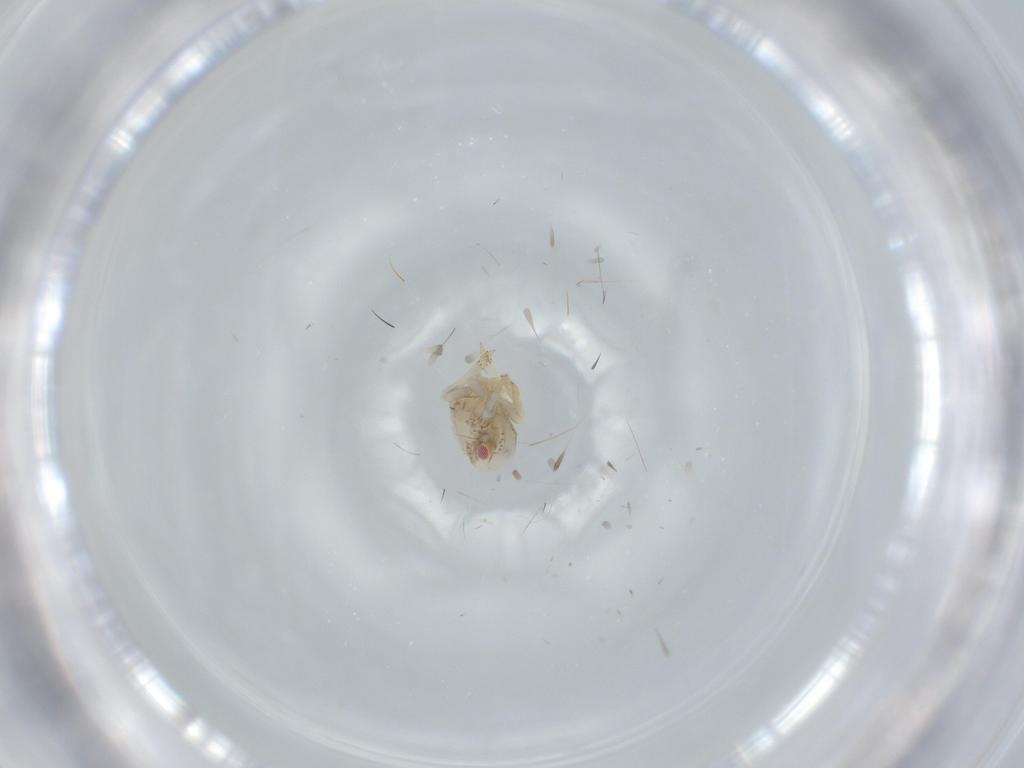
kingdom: Animalia
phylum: Arthropoda
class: Insecta
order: Hemiptera
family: Acanaloniidae
